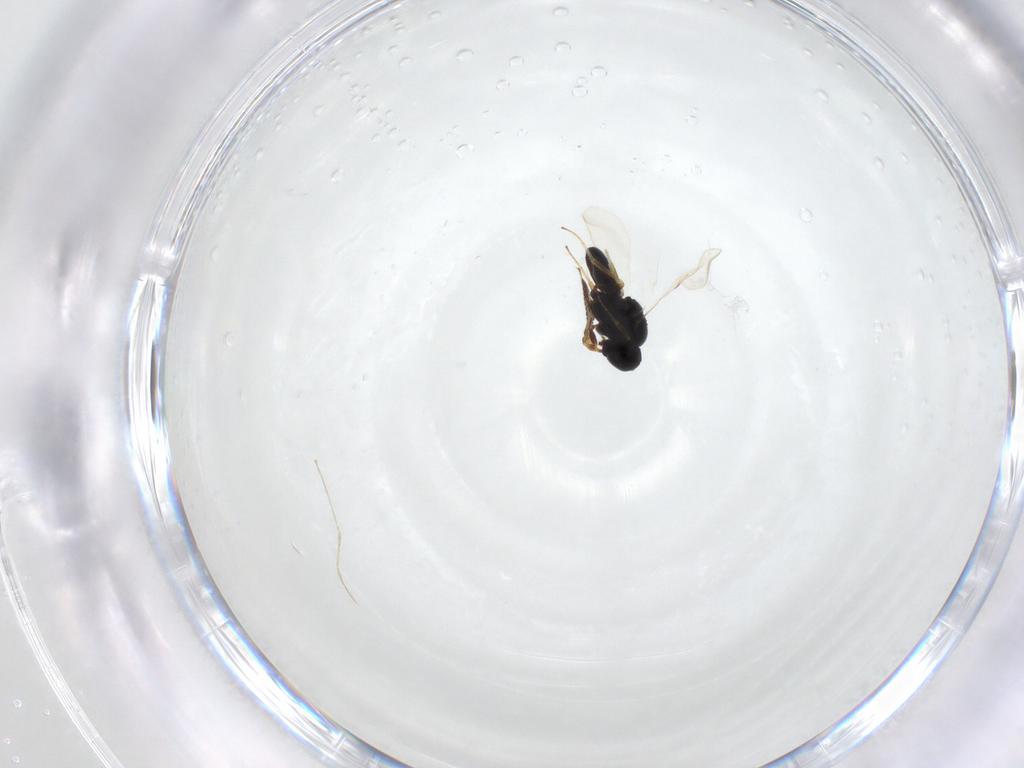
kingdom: Animalia
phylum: Arthropoda
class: Insecta
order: Hymenoptera
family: Scelionidae
